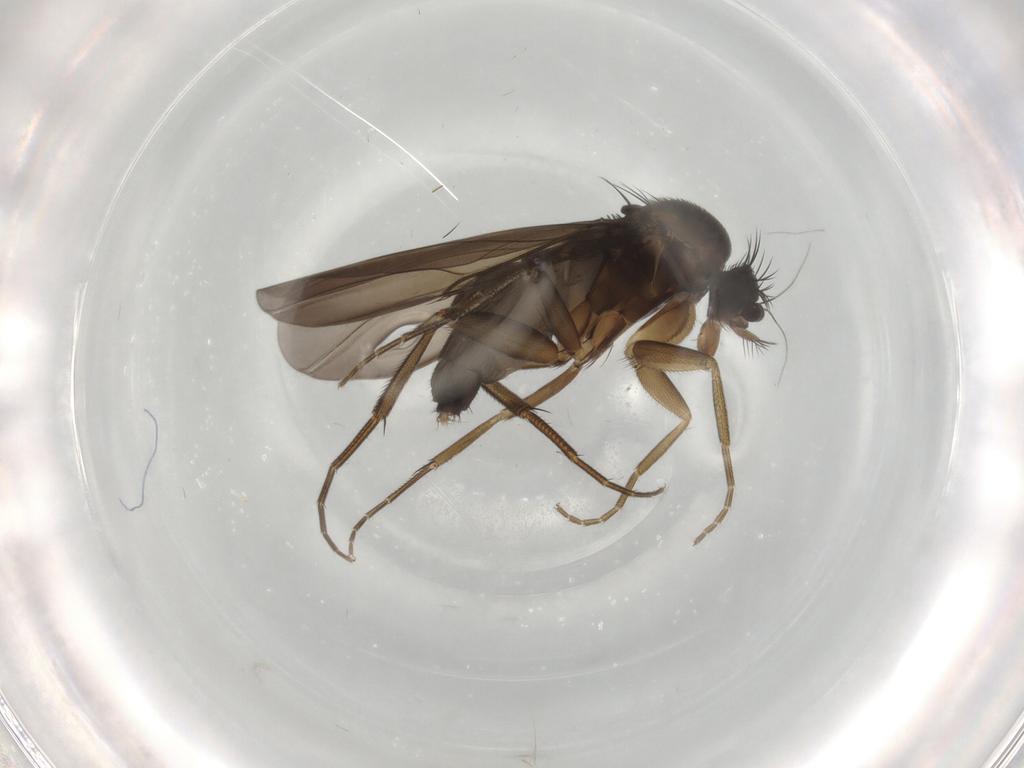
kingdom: Animalia
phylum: Arthropoda
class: Insecta
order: Diptera
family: Phoridae
